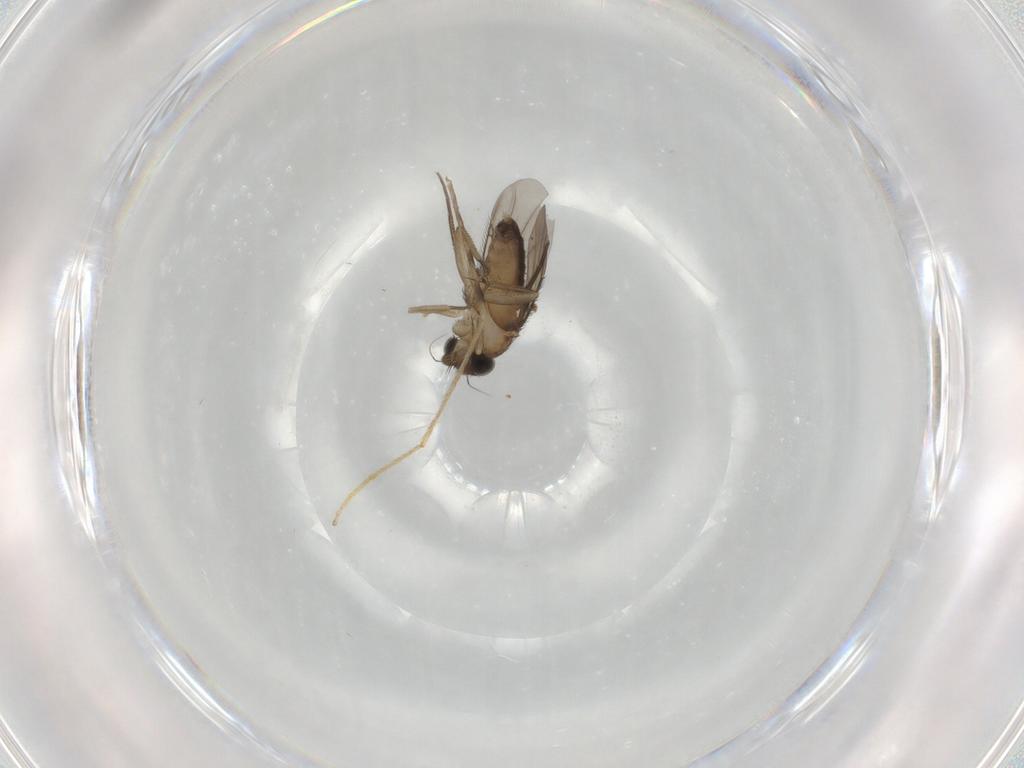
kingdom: Animalia
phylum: Arthropoda
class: Insecta
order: Diptera
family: Phoridae
